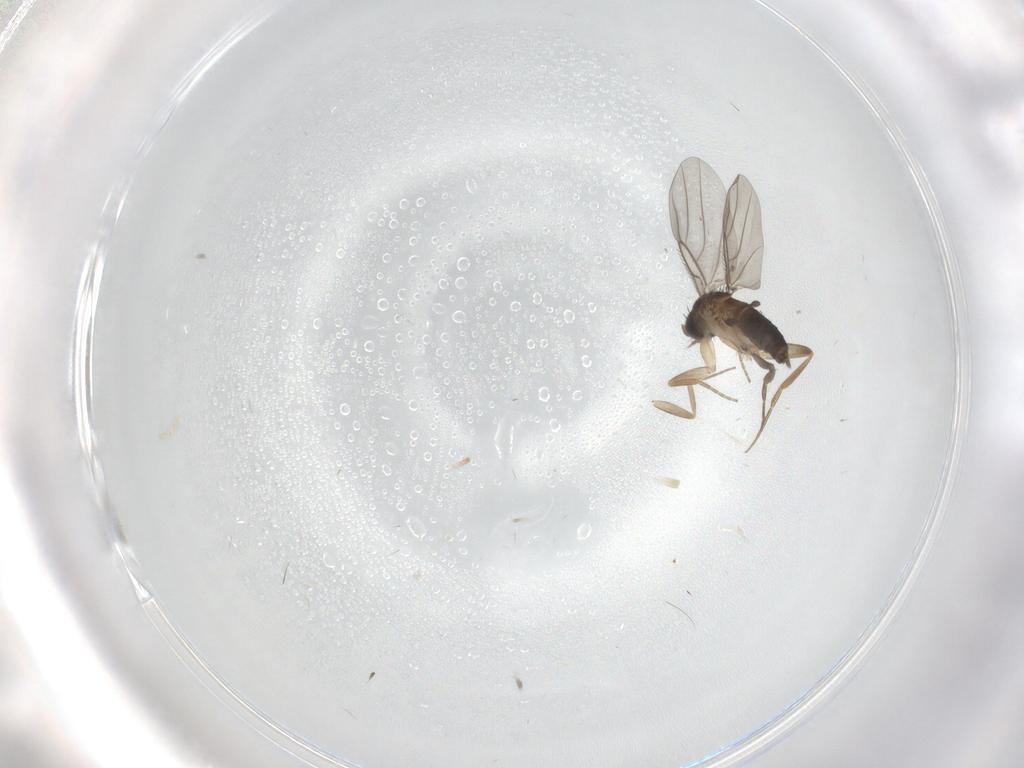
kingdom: Animalia
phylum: Arthropoda
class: Insecta
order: Diptera
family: Phoridae
